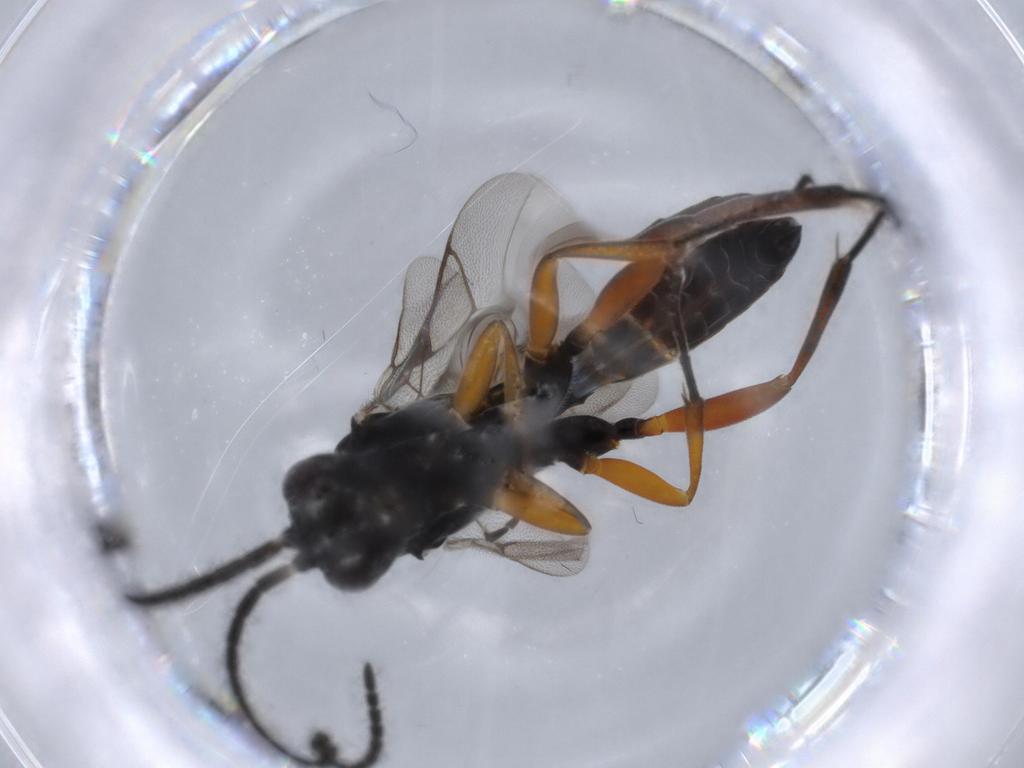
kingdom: Animalia
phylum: Arthropoda
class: Insecta
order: Hymenoptera
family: Ichneumonidae
